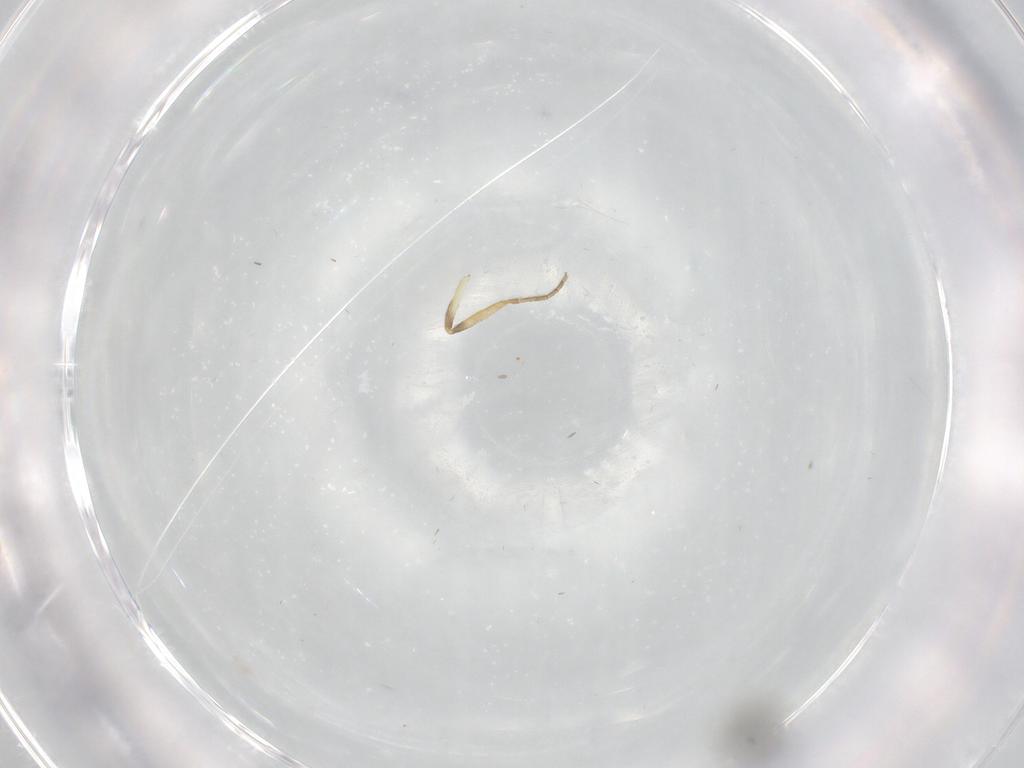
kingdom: Animalia
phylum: Arthropoda
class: Insecta
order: Diptera
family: Ceratopogonidae
